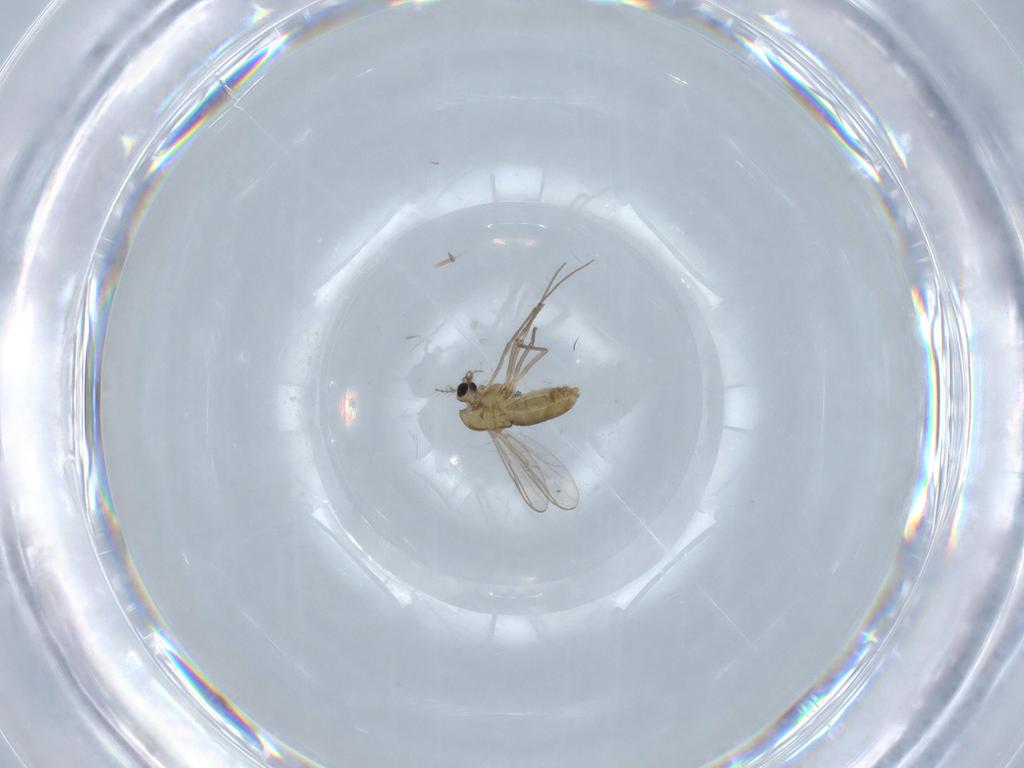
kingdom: Animalia
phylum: Arthropoda
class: Insecta
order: Diptera
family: Chironomidae
